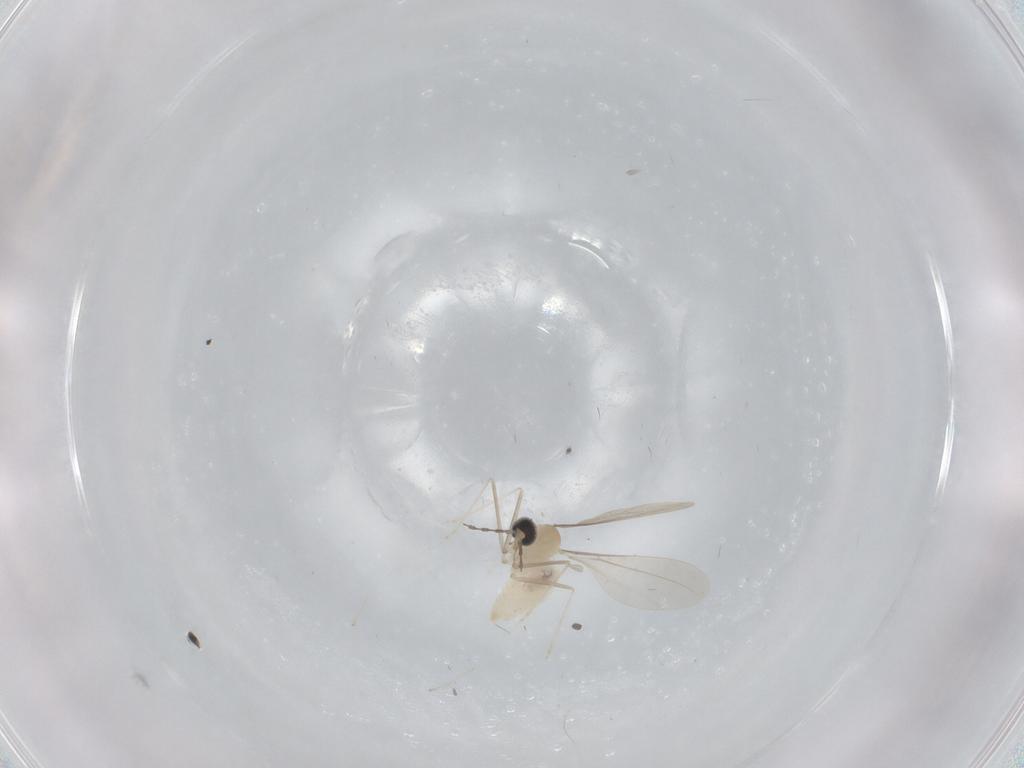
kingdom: Animalia
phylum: Arthropoda
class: Insecta
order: Diptera
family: Cecidomyiidae
